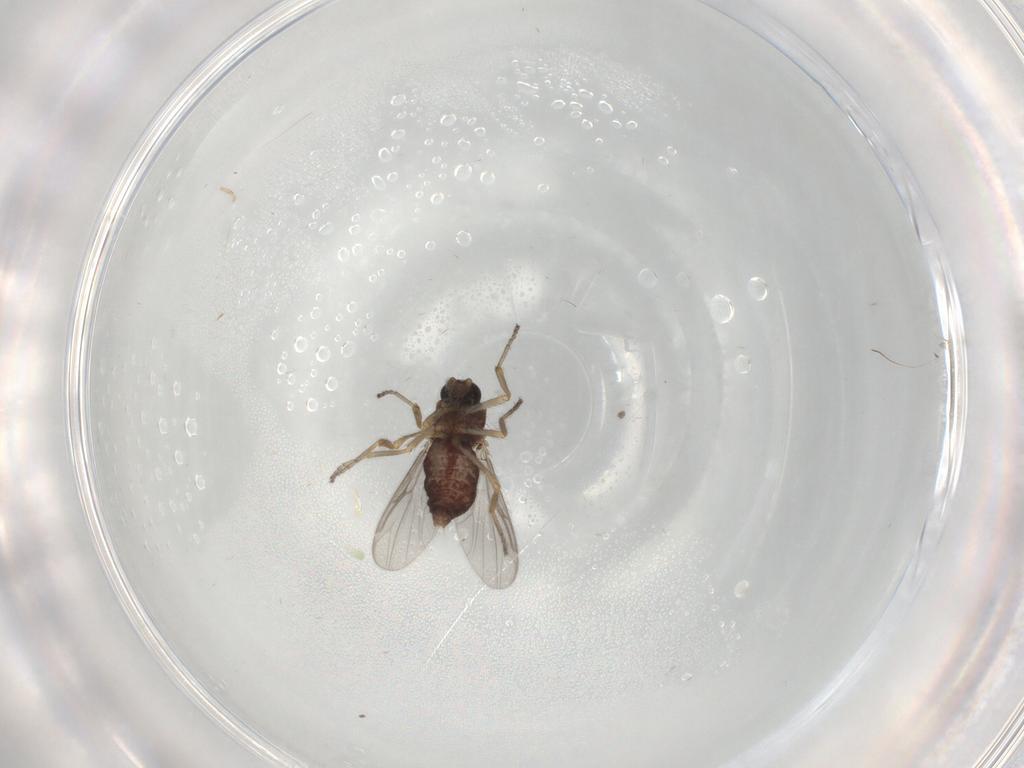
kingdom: Animalia
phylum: Arthropoda
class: Insecta
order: Diptera
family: Ceratopogonidae
